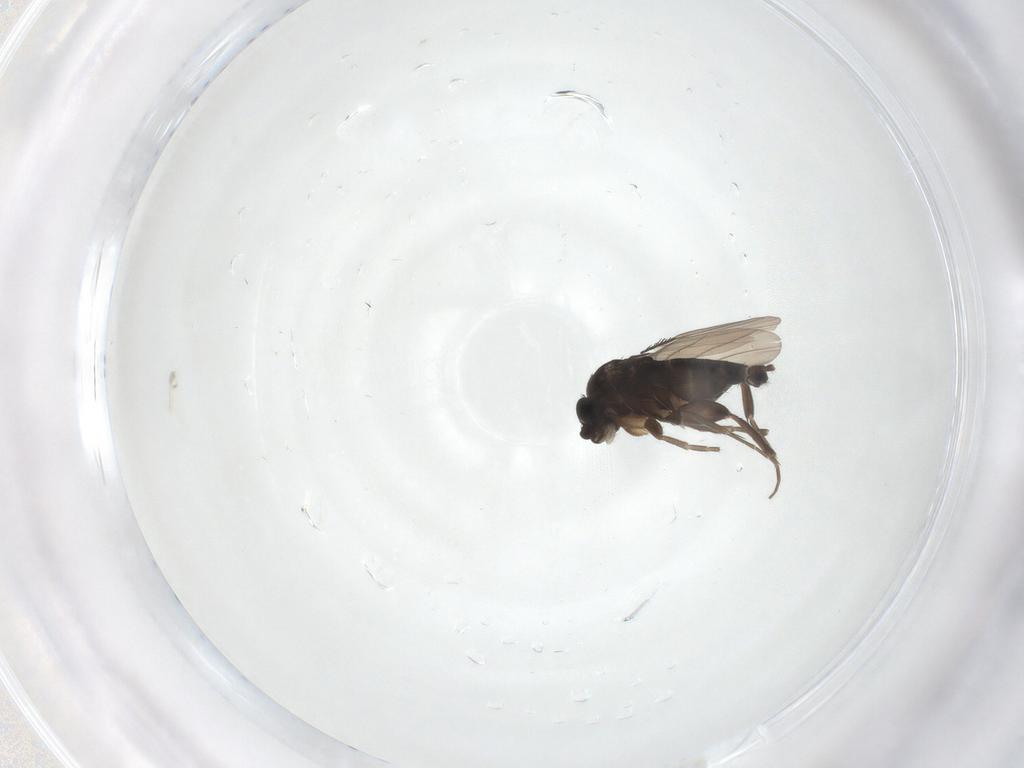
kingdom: Animalia
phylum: Arthropoda
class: Insecta
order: Diptera
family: Phoridae
